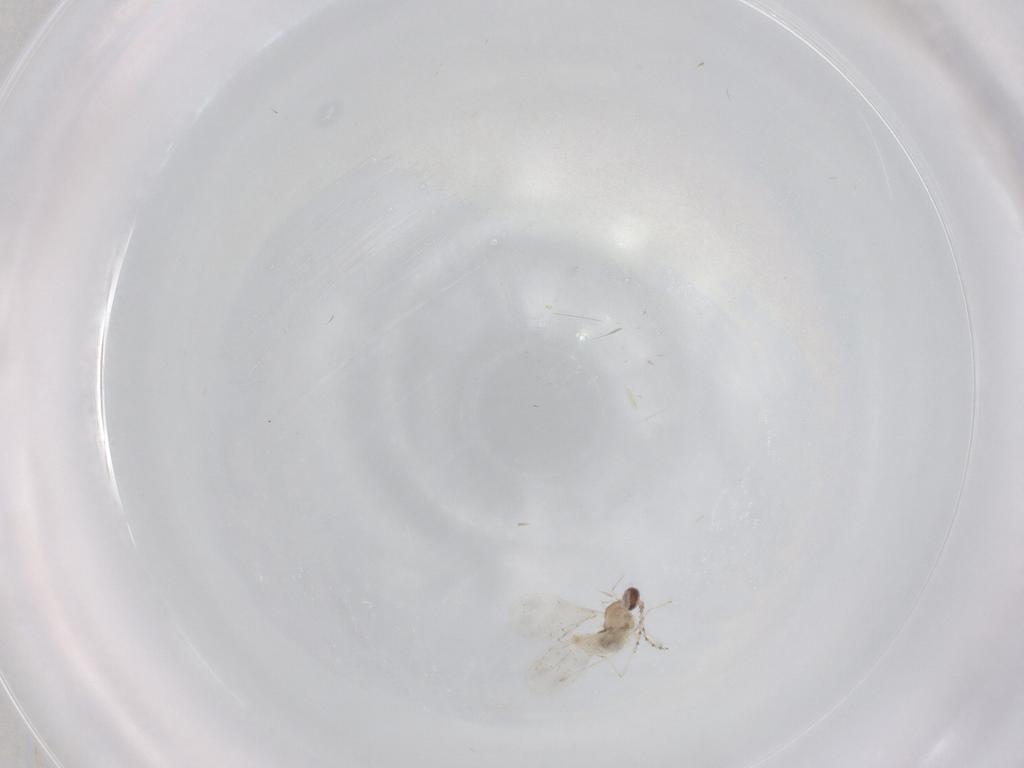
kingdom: Animalia
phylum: Arthropoda
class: Insecta
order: Diptera
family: Cecidomyiidae
